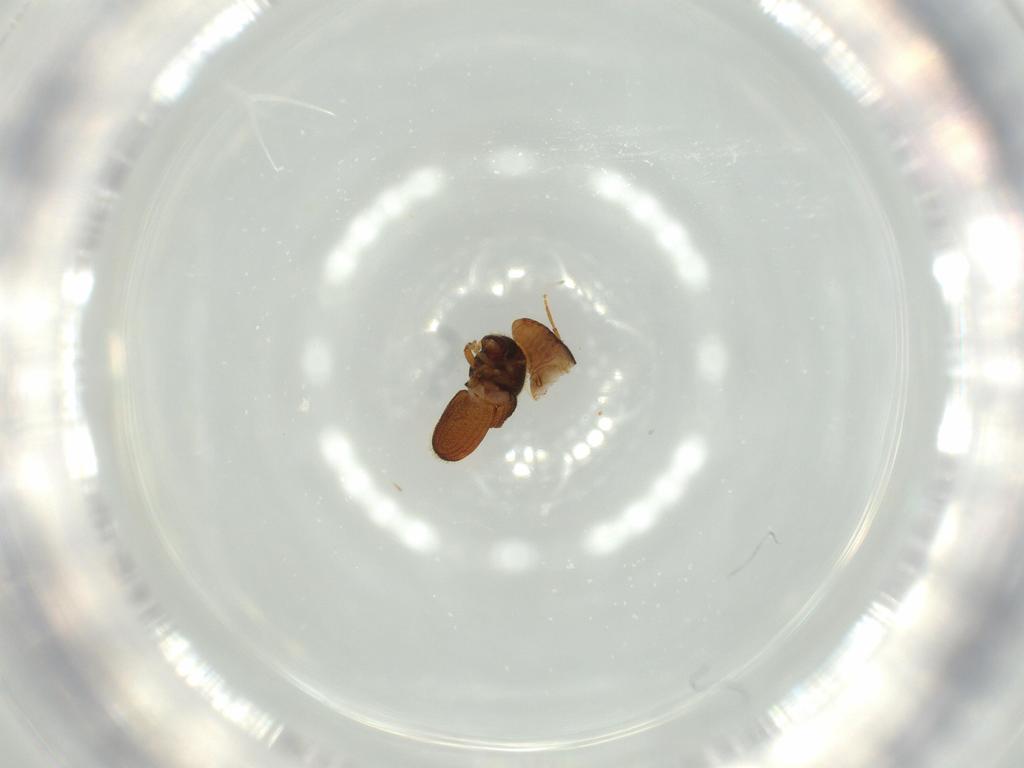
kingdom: Animalia
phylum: Arthropoda
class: Insecta
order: Coleoptera
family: Curculionidae
